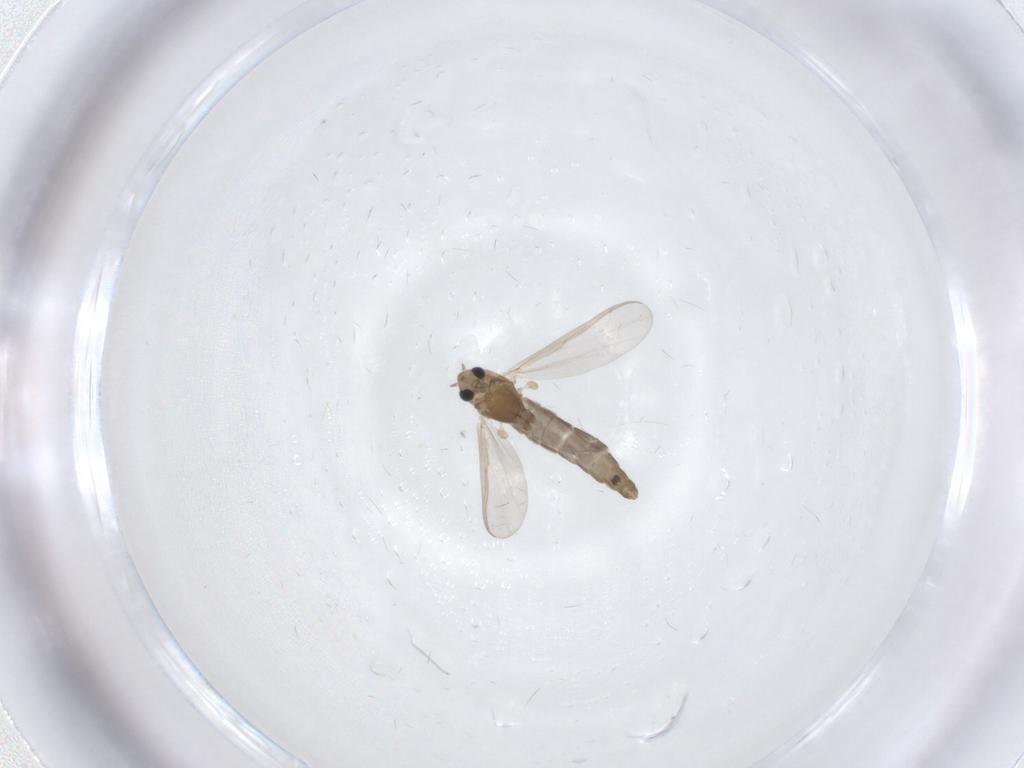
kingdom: Animalia
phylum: Arthropoda
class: Insecta
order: Diptera
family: Chironomidae
